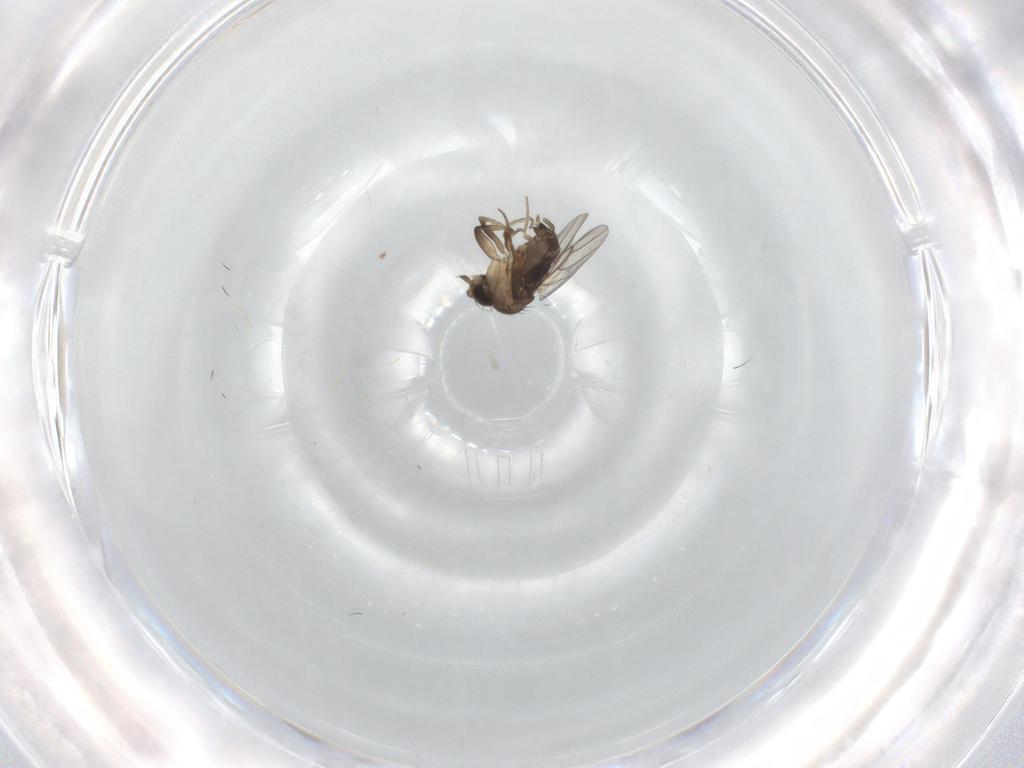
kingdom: Animalia
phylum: Arthropoda
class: Insecta
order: Diptera
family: Phoridae
